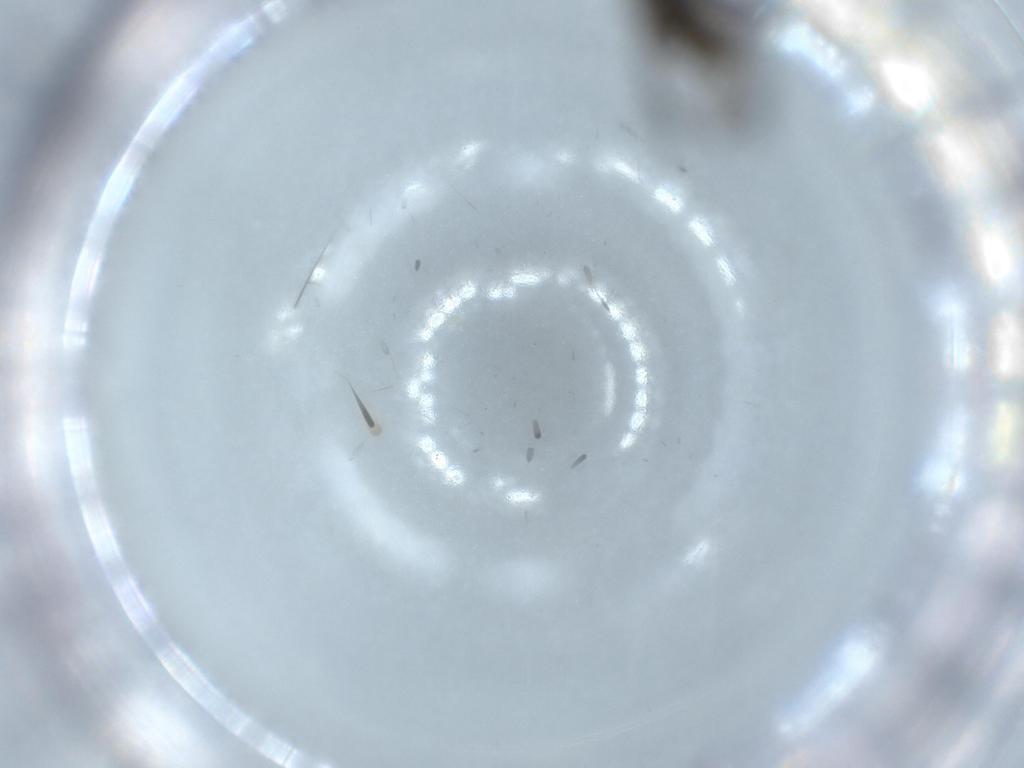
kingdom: Animalia
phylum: Arthropoda
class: Insecta
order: Diptera
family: Sciaridae
